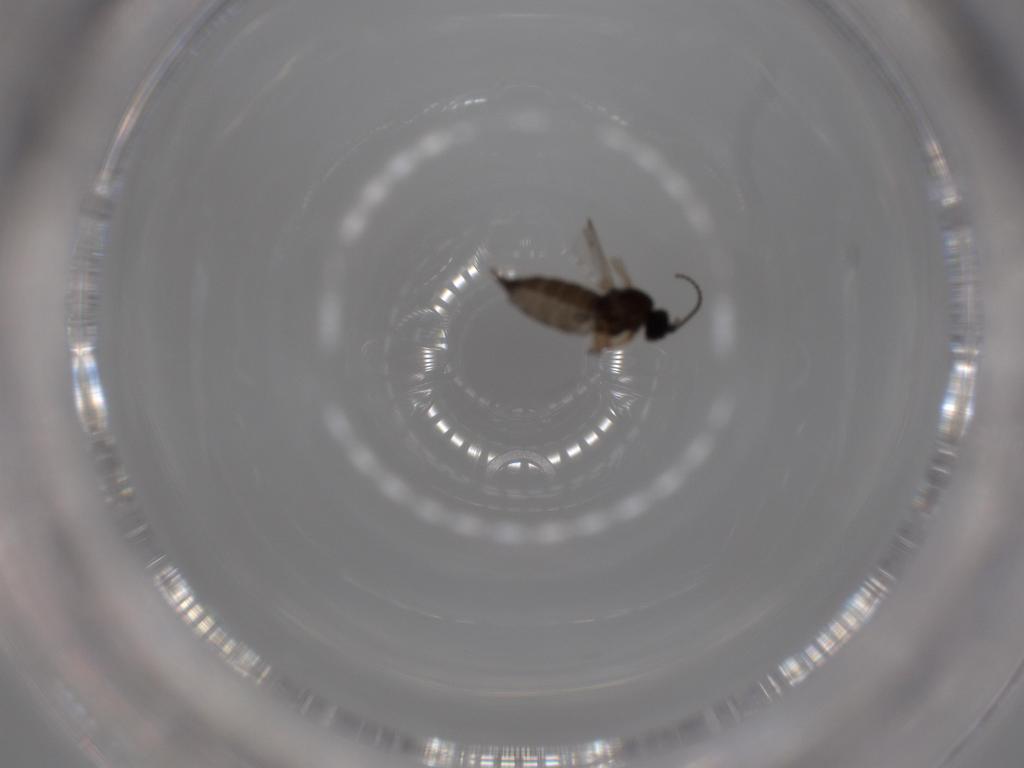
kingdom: Animalia
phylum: Arthropoda
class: Insecta
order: Diptera
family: Sciaridae
